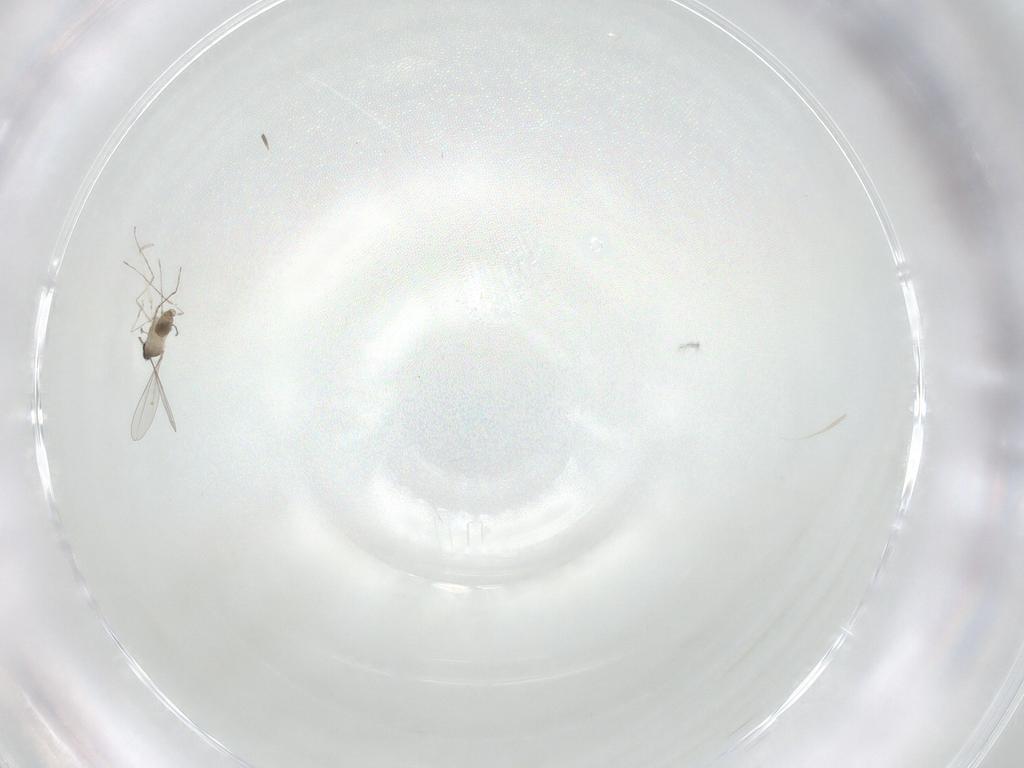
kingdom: Animalia
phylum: Arthropoda
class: Insecta
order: Diptera
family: Cecidomyiidae
